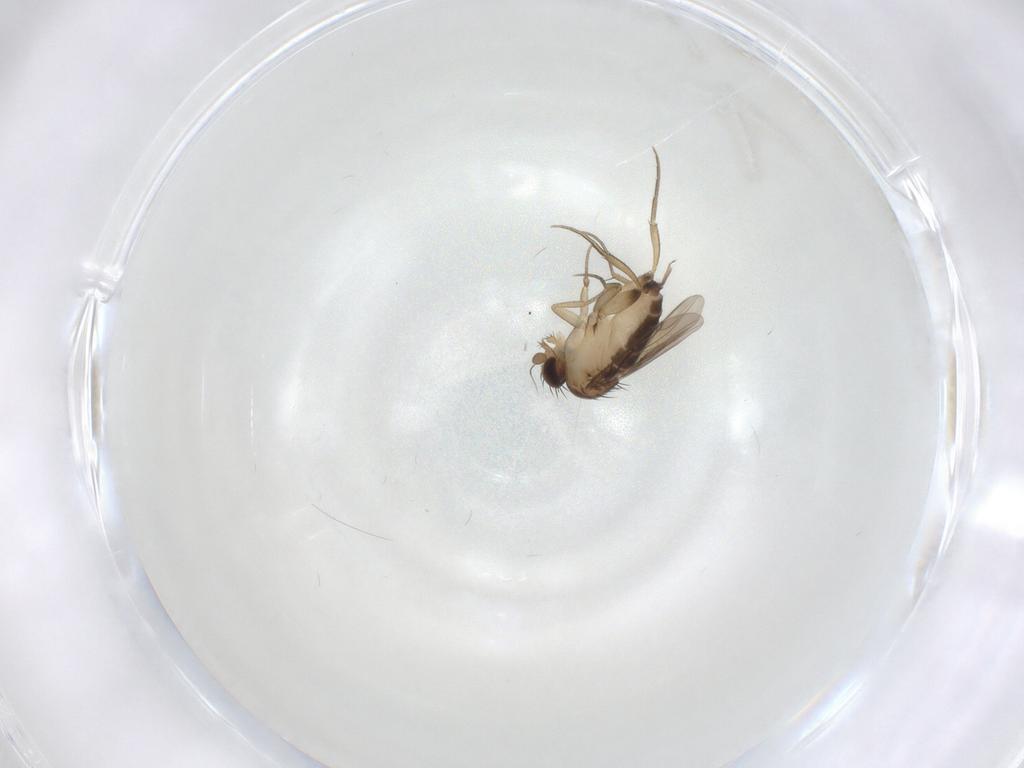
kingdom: Animalia
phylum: Arthropoda
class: Insecta
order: Diptera
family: Phoridae
